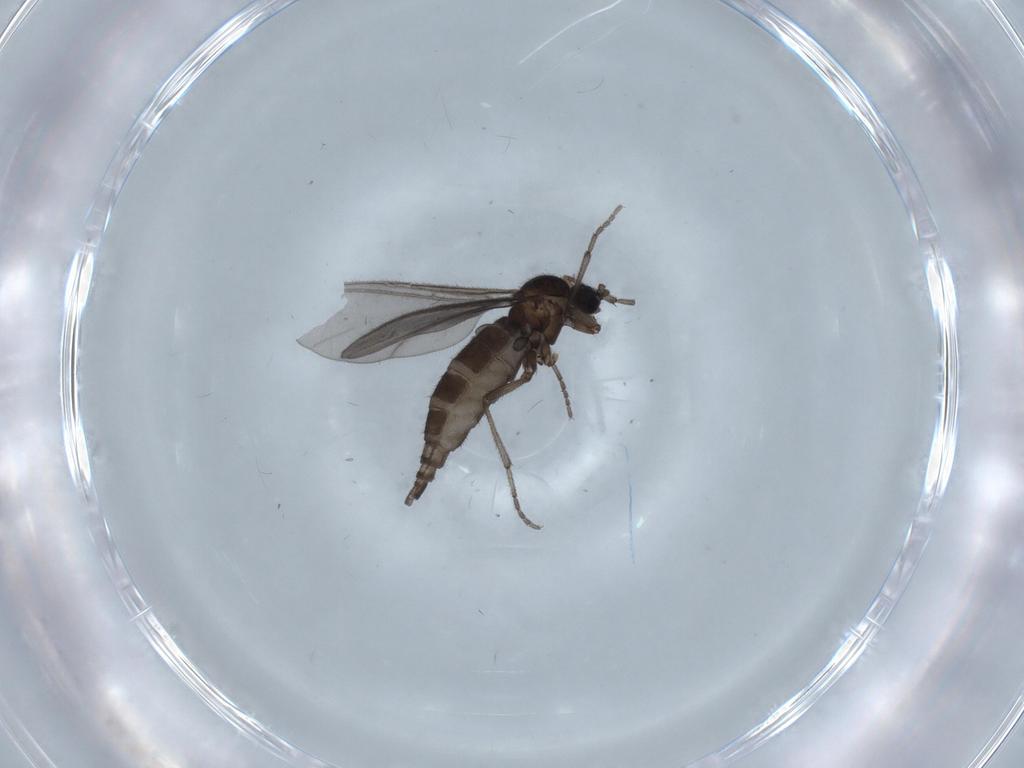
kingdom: Animalia
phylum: Arthropoda
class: Insecta
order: Diptera
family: Sciaridae
